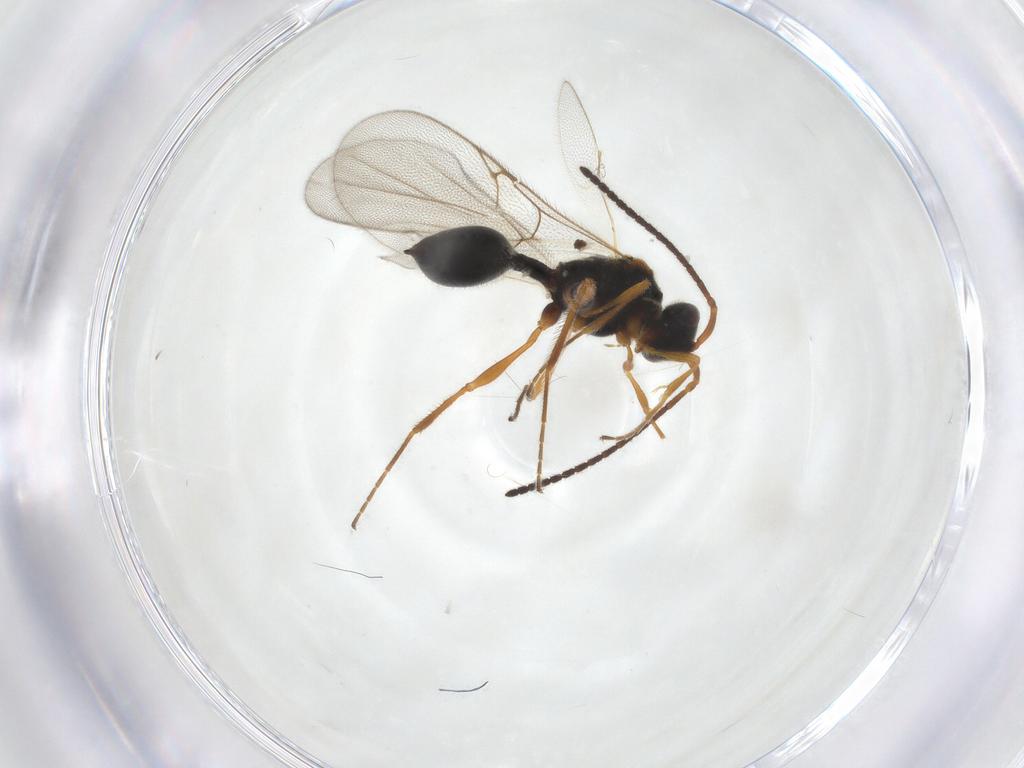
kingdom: Animalia
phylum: Arthropoda
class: Insecta
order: Hymenoptera
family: Diapriidae
